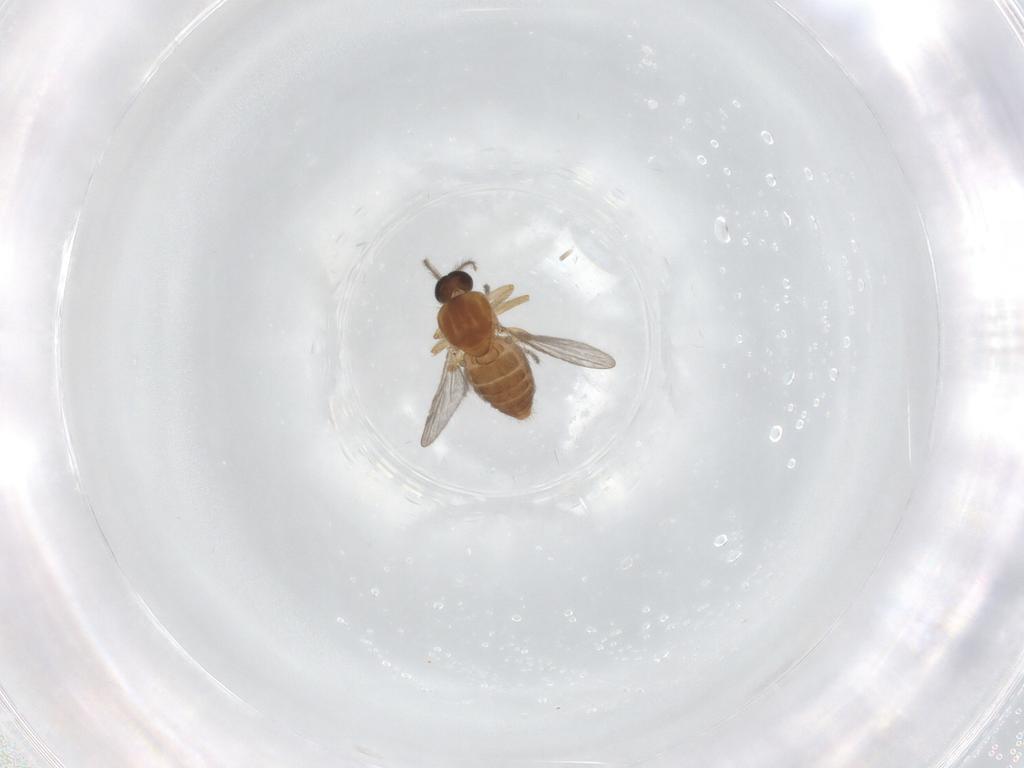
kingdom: Animalia
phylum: Arthropoda
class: Insecta
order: Diptera
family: Ceratopogonidae
